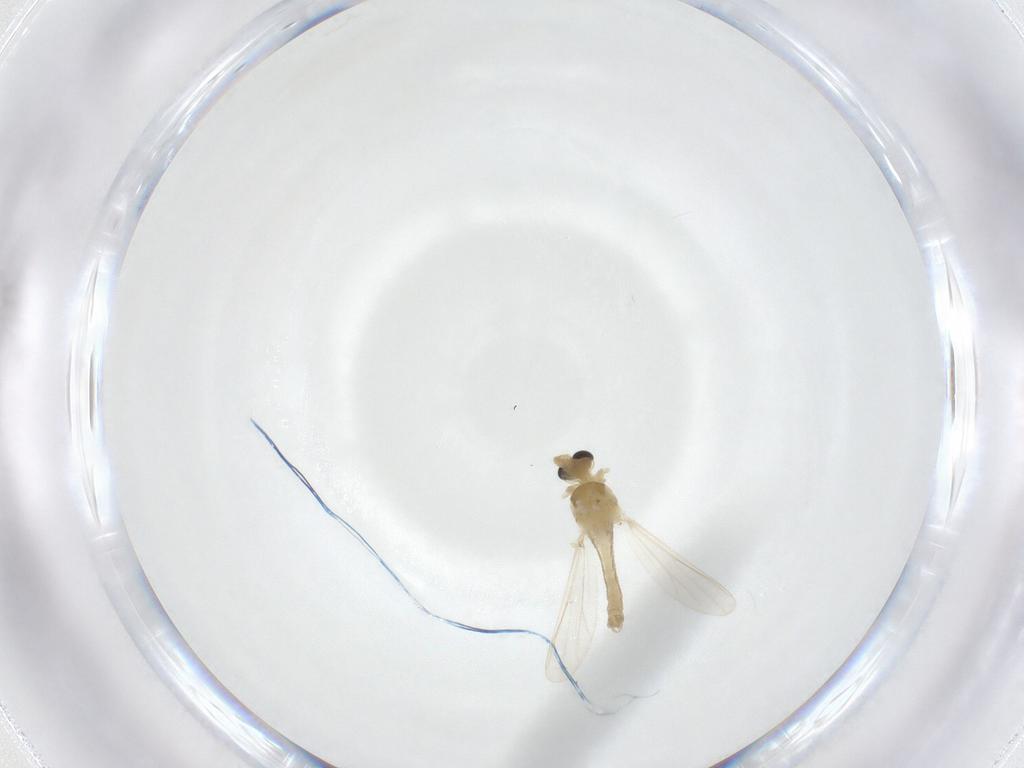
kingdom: Animalia
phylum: Arthropoda
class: Insecta
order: Diptera
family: Chironomidae
